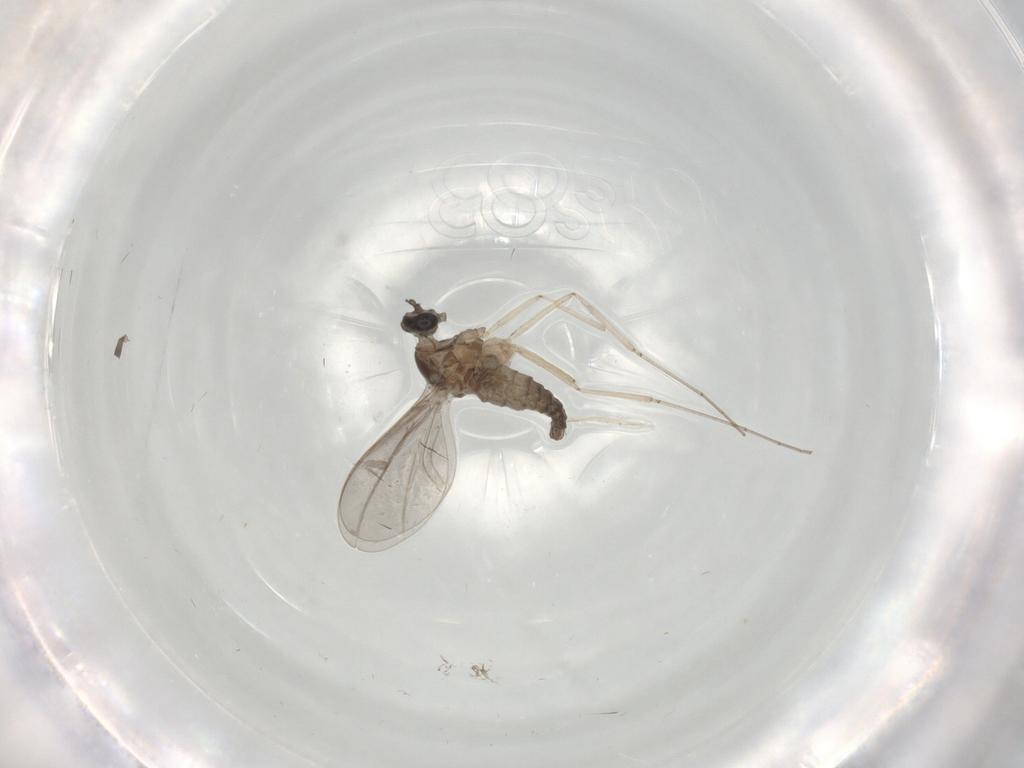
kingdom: Animalia
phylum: Arthropoda
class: Insecta
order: Diptera
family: Cecidomyiidae
